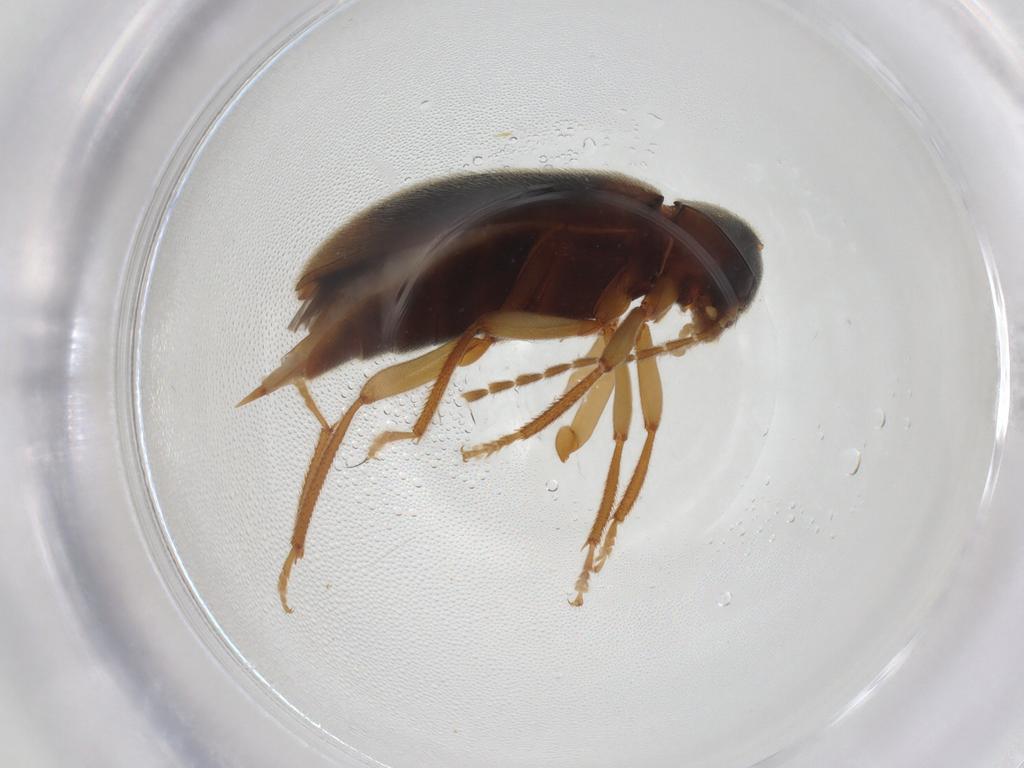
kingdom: Animalia
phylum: Arthropoda
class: Insecta
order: Coleoptera
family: Ptilodactylidae
